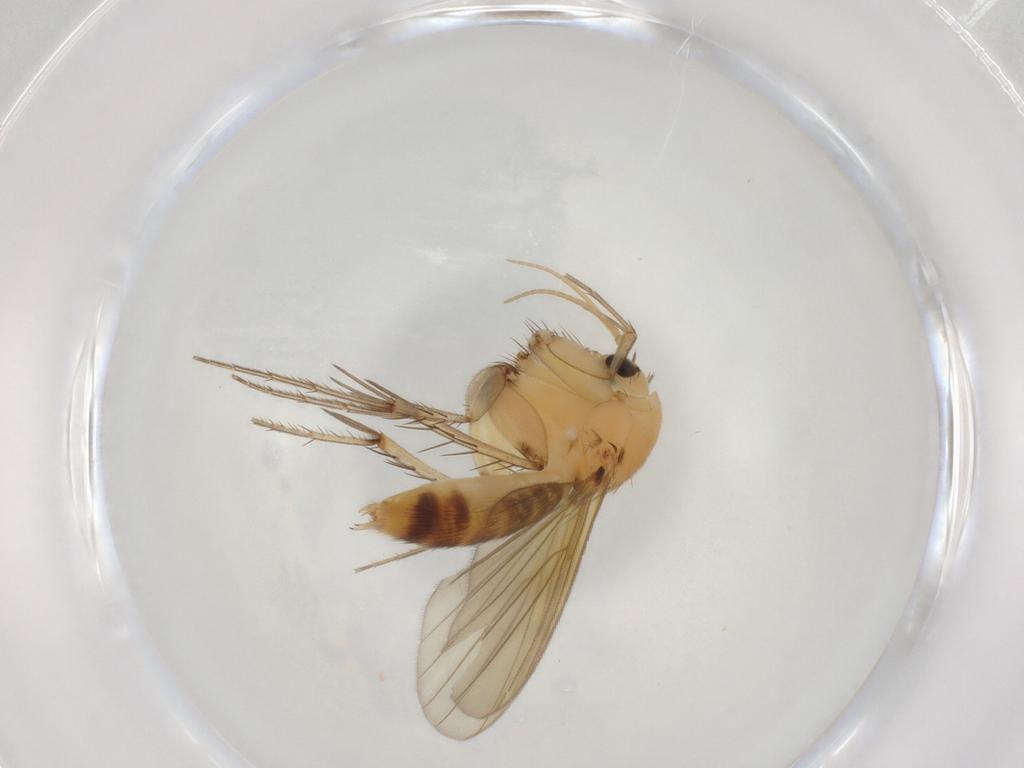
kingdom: Animalia
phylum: Arthropoda
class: Insecta
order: Diptera
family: Mycetophilidae
